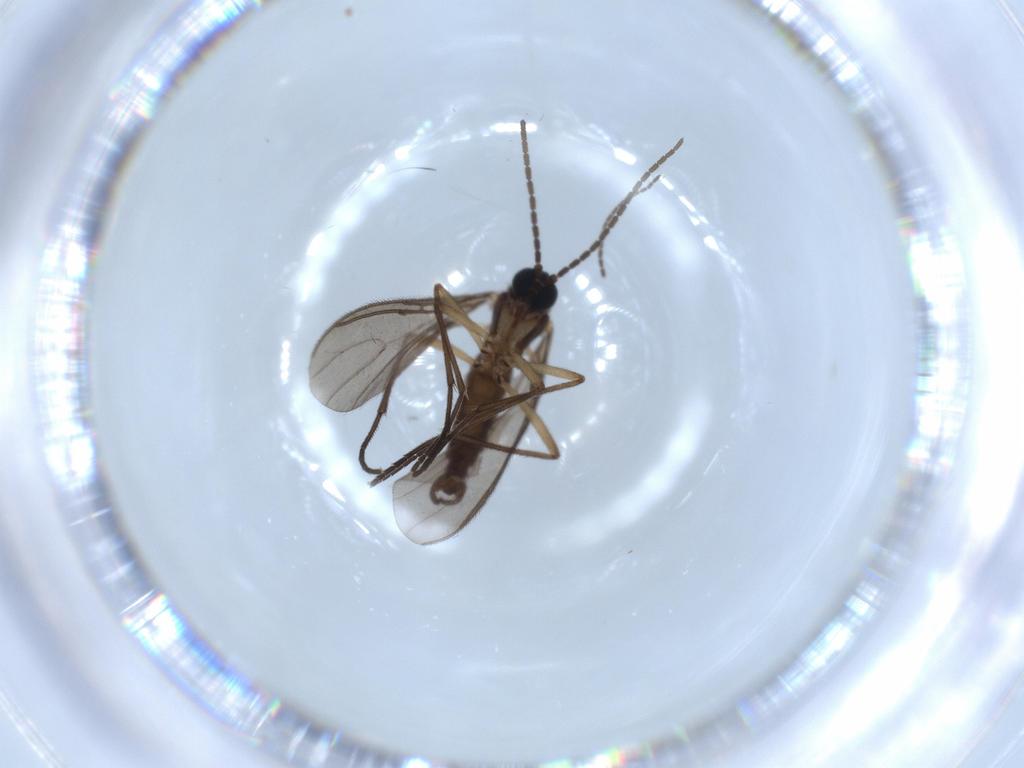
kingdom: Animalia
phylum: Arthropoda
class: Insecta
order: Diptera
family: Sciaridae
